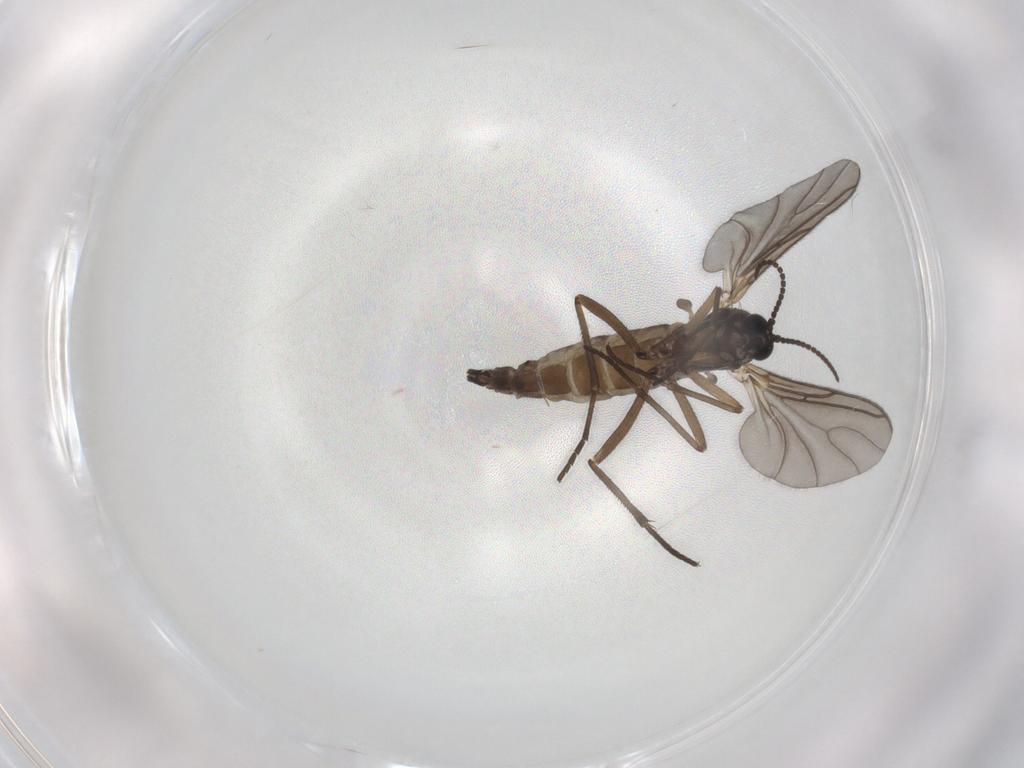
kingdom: Animalia
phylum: Arthropoda
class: Insecta
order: Diptera
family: Sciaridae
